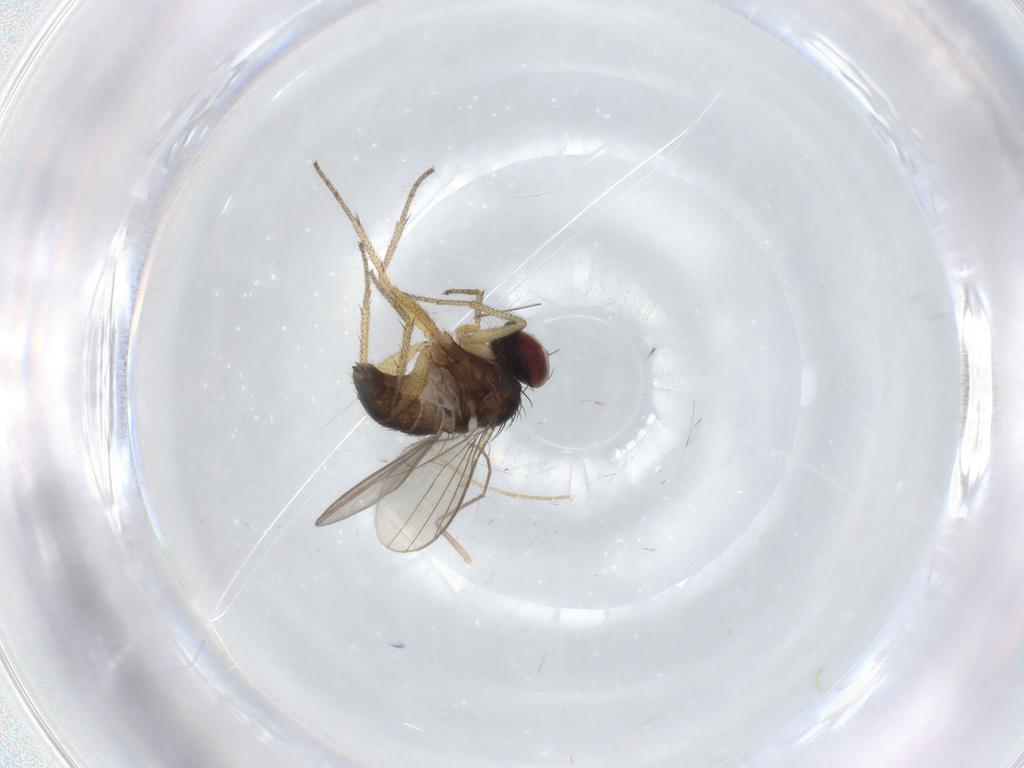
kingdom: Animalia
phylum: Arthropoda
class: Insecta
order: Diptera
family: Dolichopodidae
